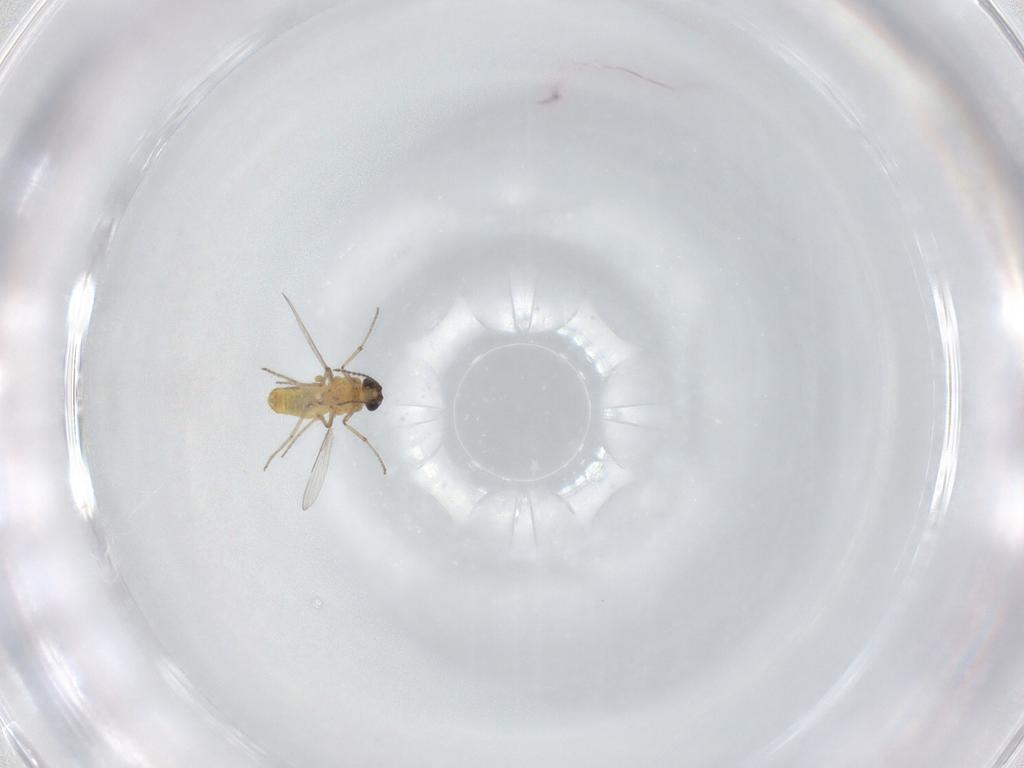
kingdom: Animalia
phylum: Arthropoda
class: Insecta
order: Diptera
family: Ceratopogonidae
